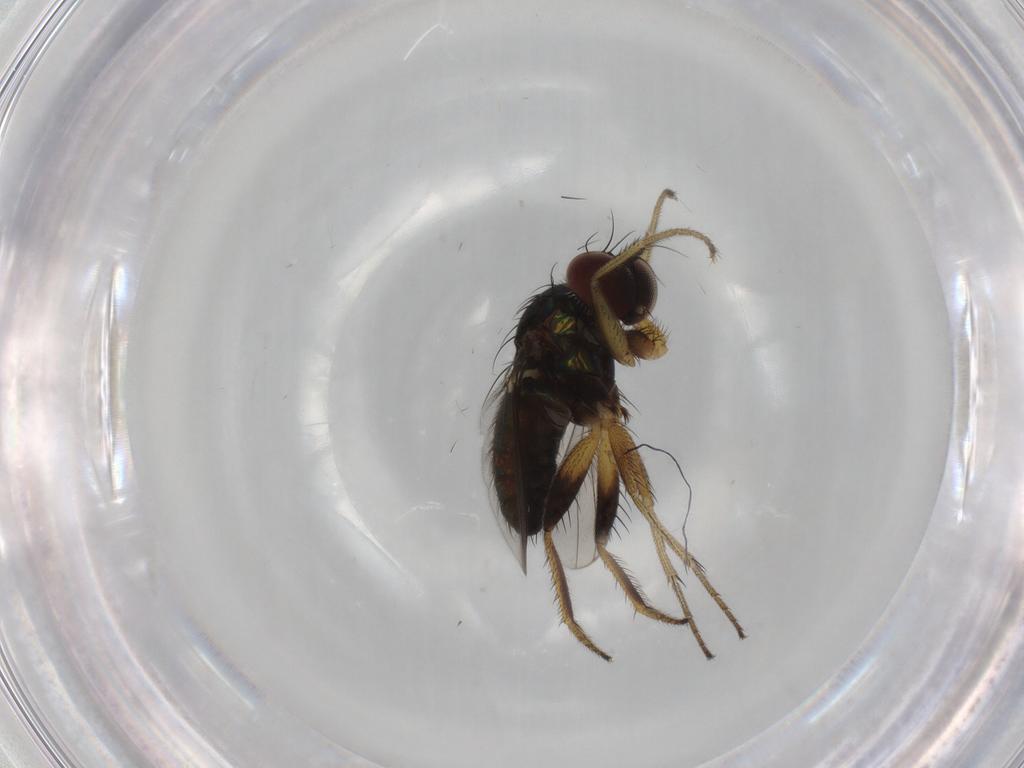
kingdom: Animalia
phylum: Arthropoda
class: Insecta
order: Diptera
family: Dolichopodidae
